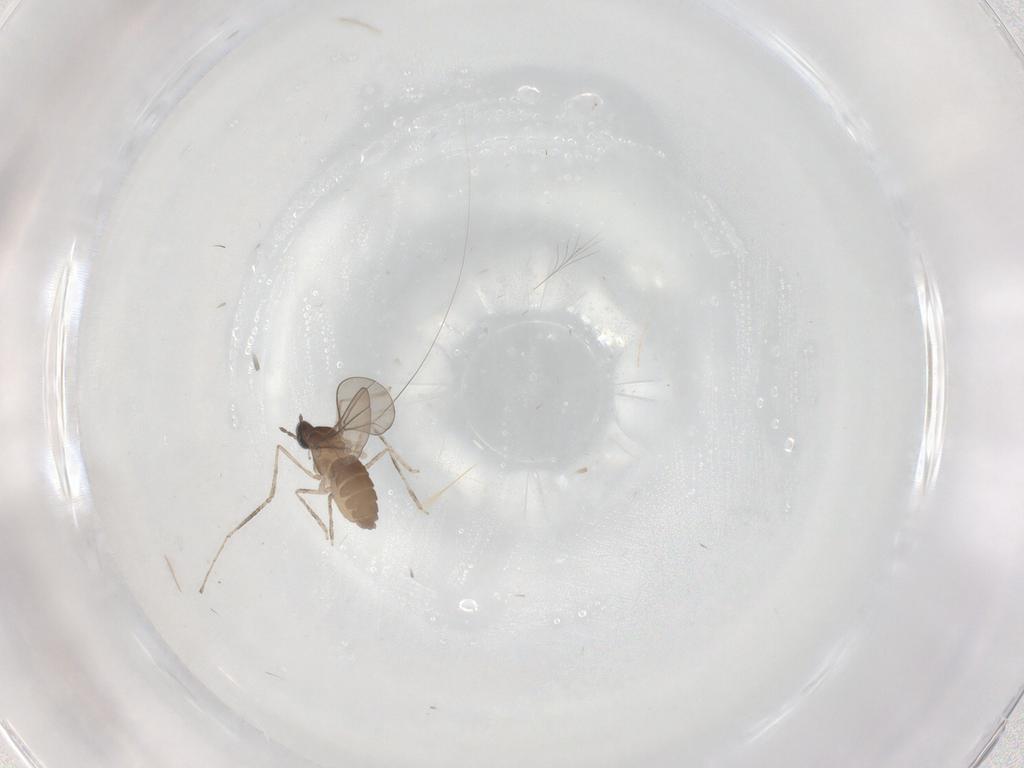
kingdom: Animalia
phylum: Arthropoda
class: Insecta
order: Diptera
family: Cecidomyiidae
